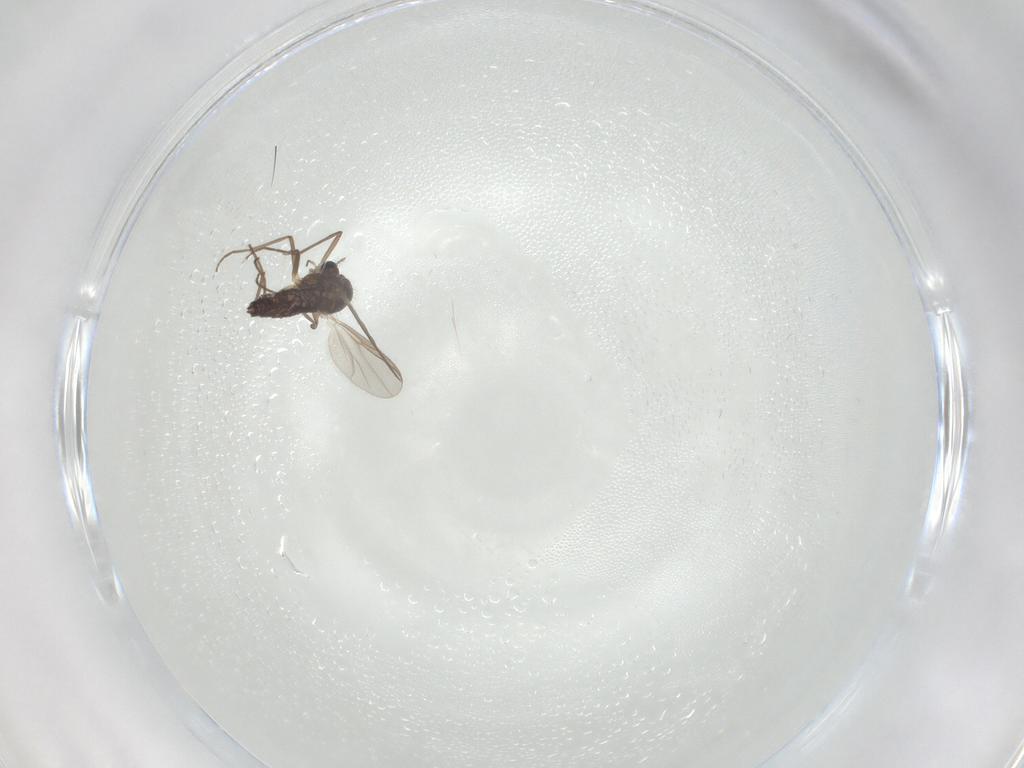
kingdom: Animalia
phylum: Arthropoda
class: Insecta
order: Diptera
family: Chironomidae
